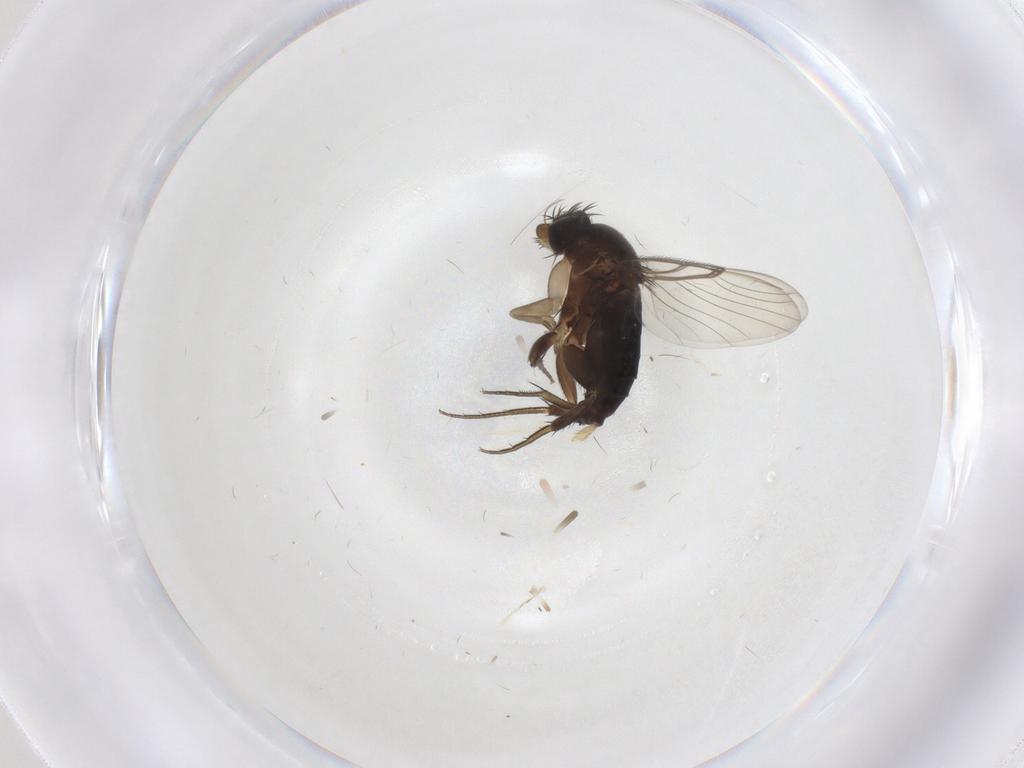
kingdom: Animalia
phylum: Arthropoda
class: Insecta
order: Diptera
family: Phoridae
